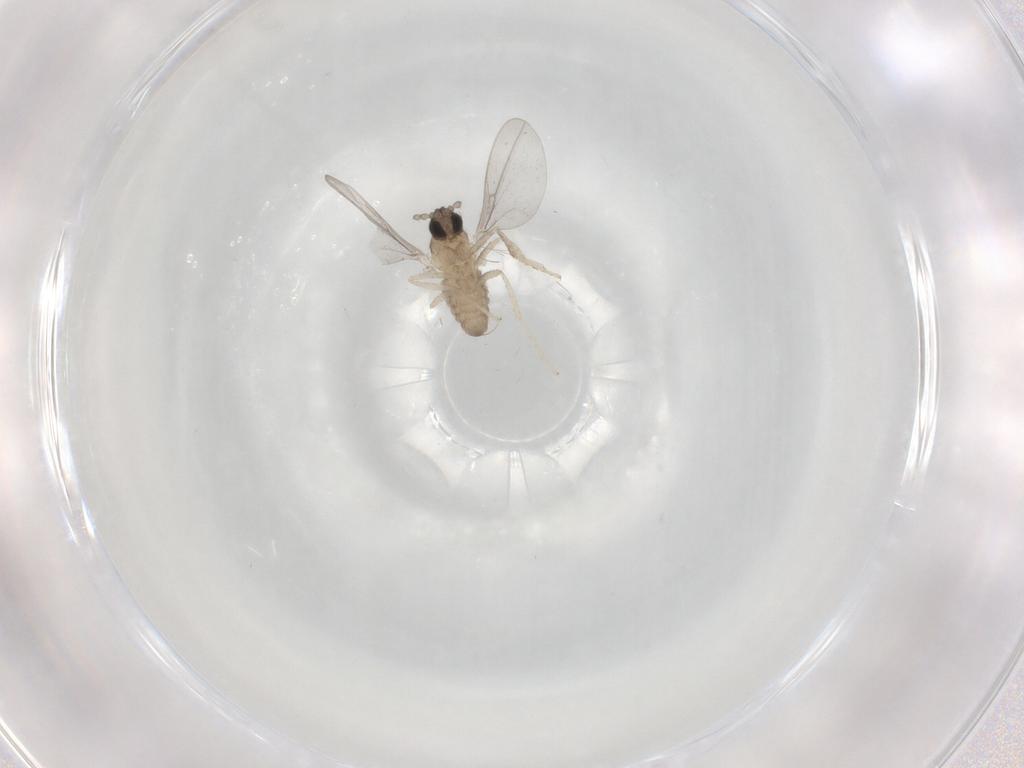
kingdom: Animalia
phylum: Arthropoda
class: Insecta
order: Diptera
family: Cecidomyiidae
